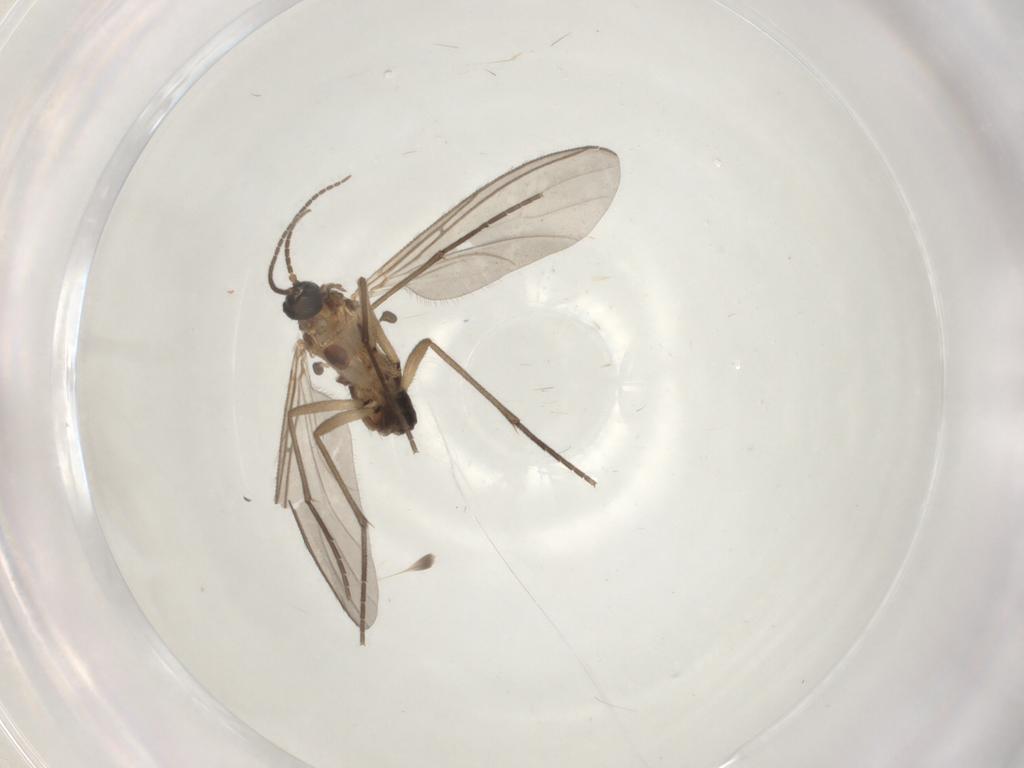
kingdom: Animalia
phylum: Arthropoda
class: Insecta
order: Diptera
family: Sciaridae
